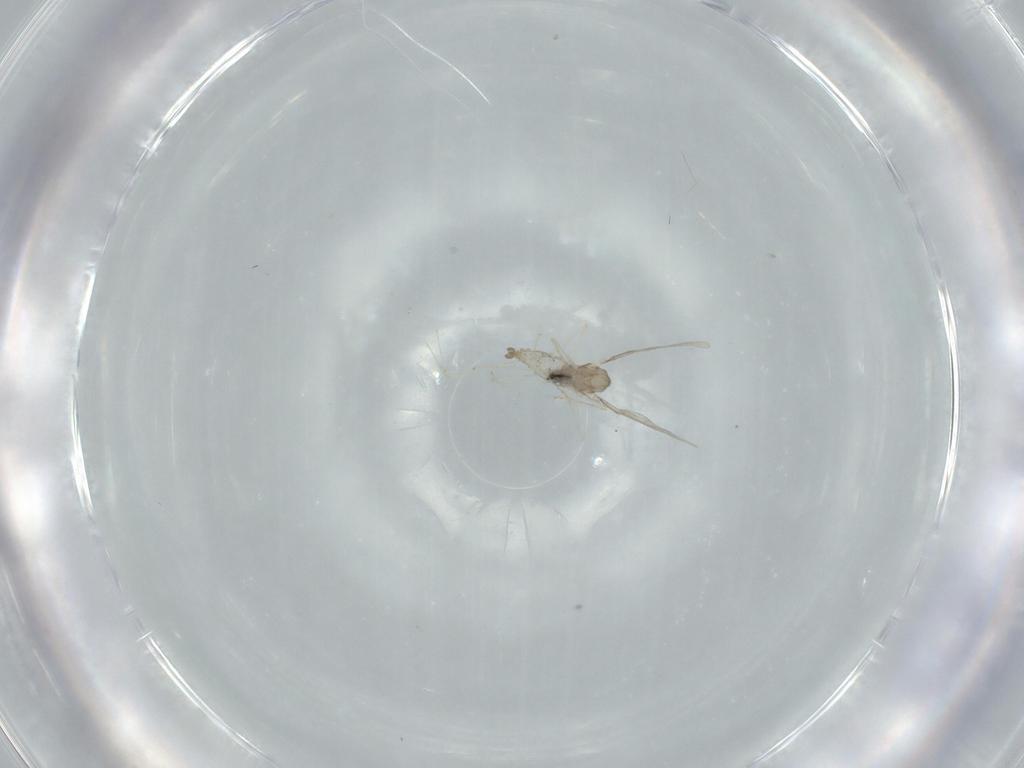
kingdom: Animalia
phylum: Arthropoda
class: Insecta
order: Diptera
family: Cecidomyiidae
